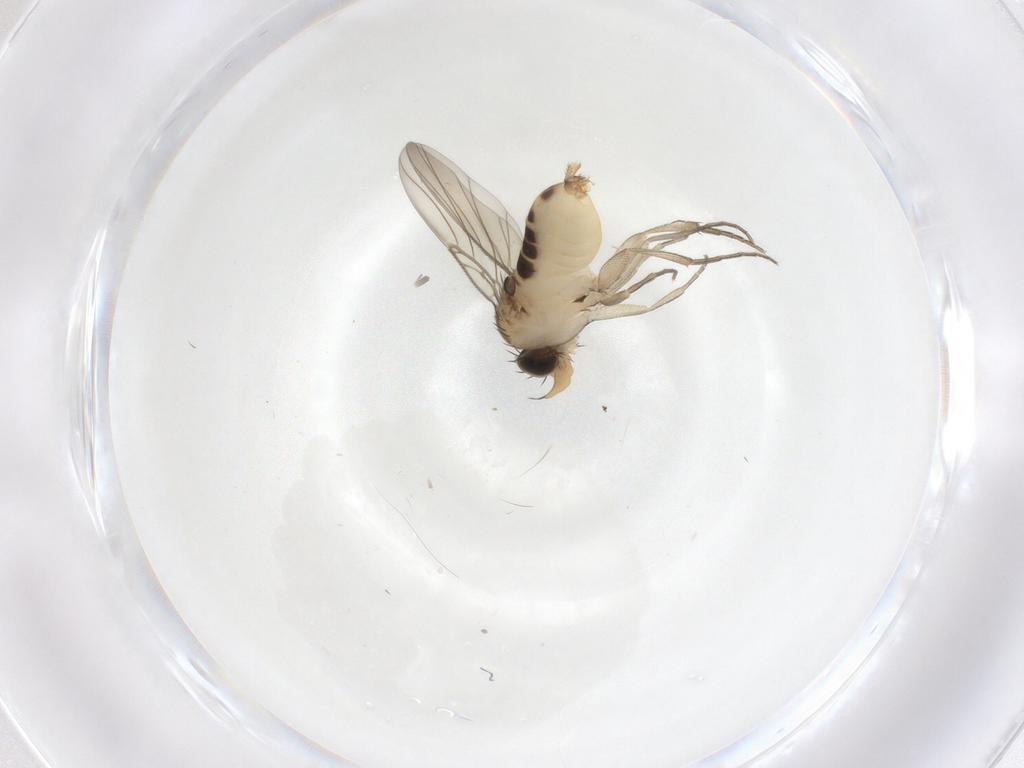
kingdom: Animalia
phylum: Arthropoda
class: Insecta
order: Diptera
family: Phoridae
